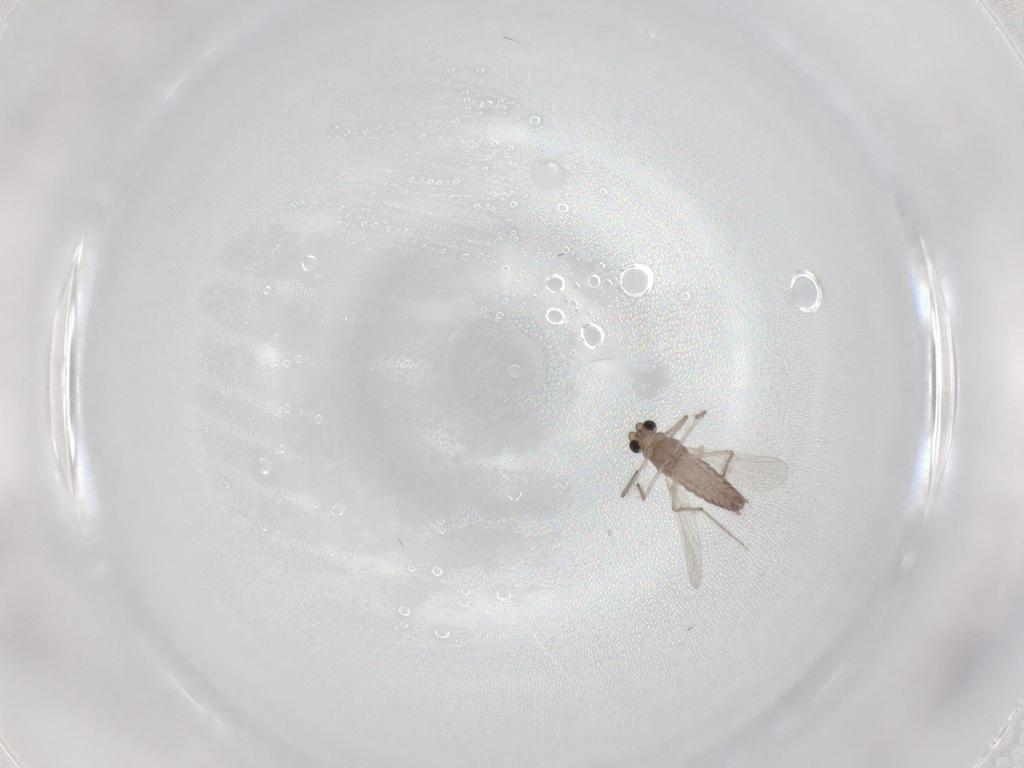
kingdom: Animalia
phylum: Arthropoda
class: Insecta
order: Diptera
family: Chironomidae
